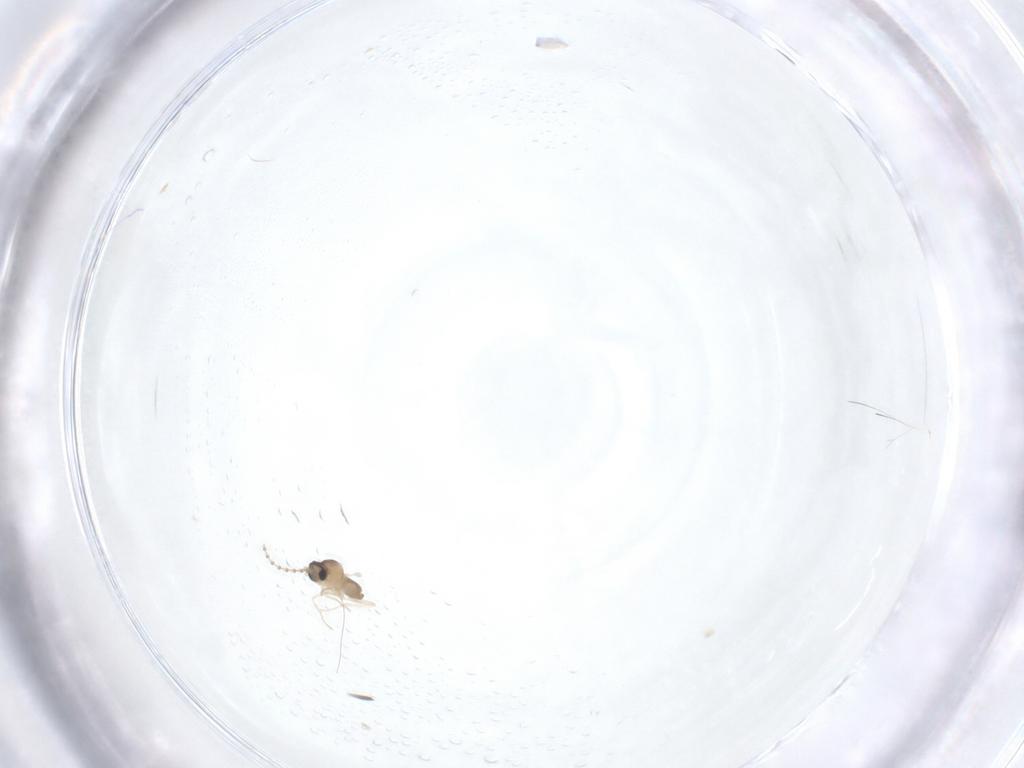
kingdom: Animalia
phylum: Arthropoda
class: Insecta
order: Diptera
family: Cecidomyiidae
